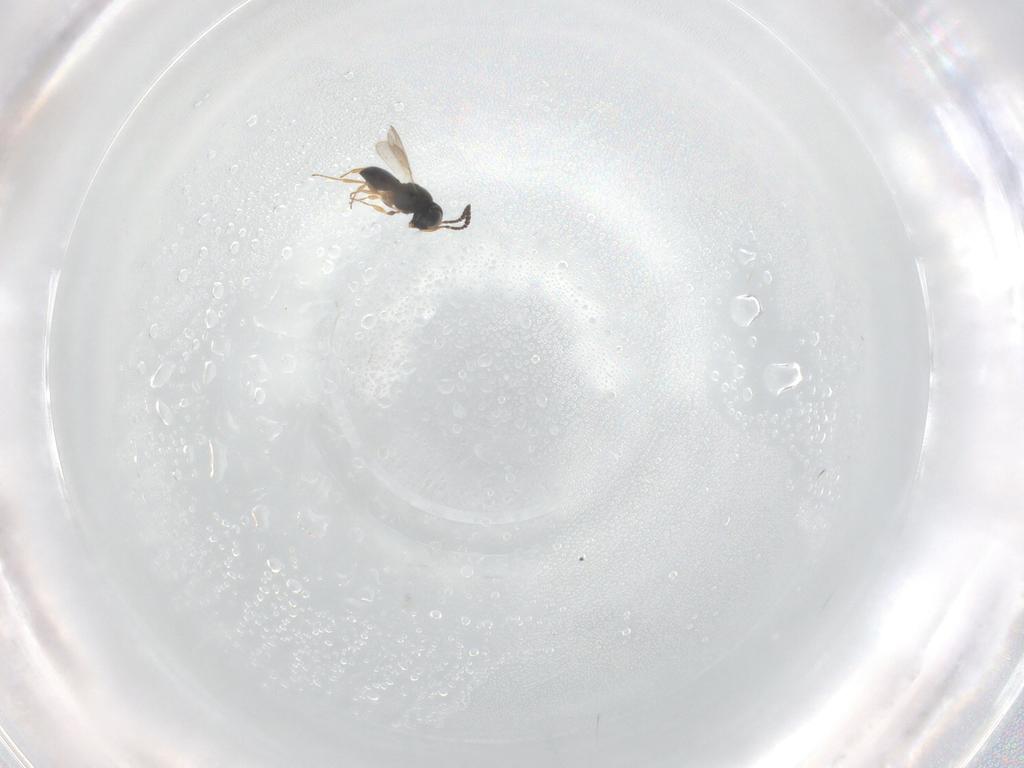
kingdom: Animalia
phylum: Arthropoda
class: Insecta
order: Hymenoptera
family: Scelionidae
